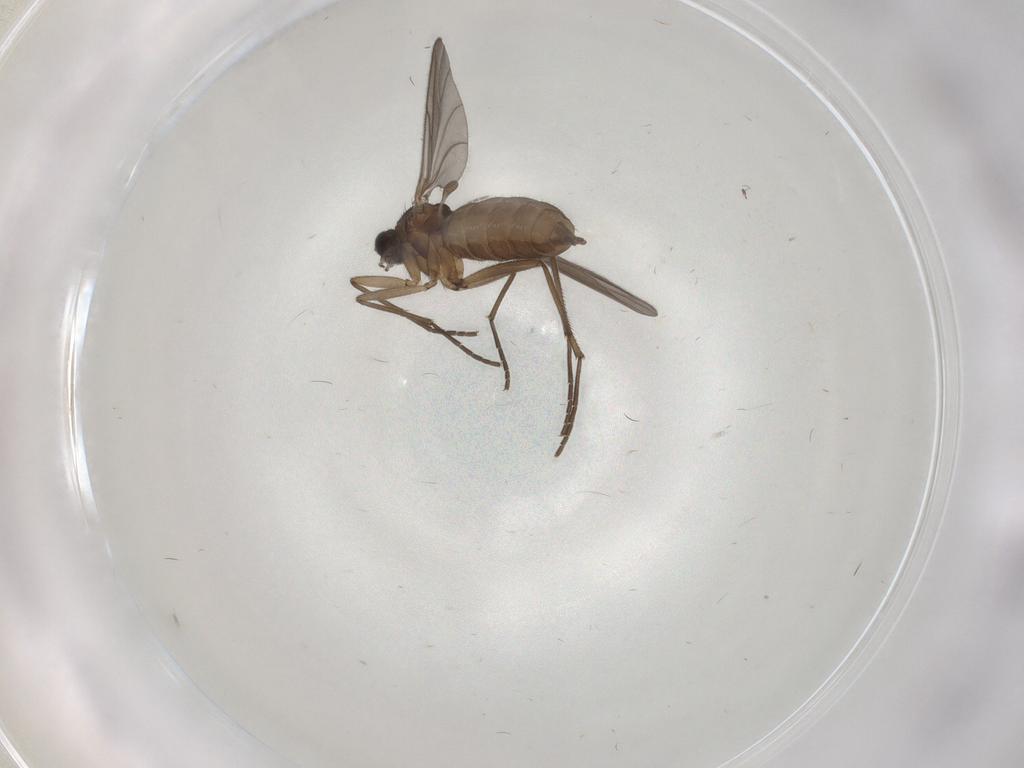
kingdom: Animalia
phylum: Arthropoda
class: Insecta
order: Diptera
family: Sciaridae
